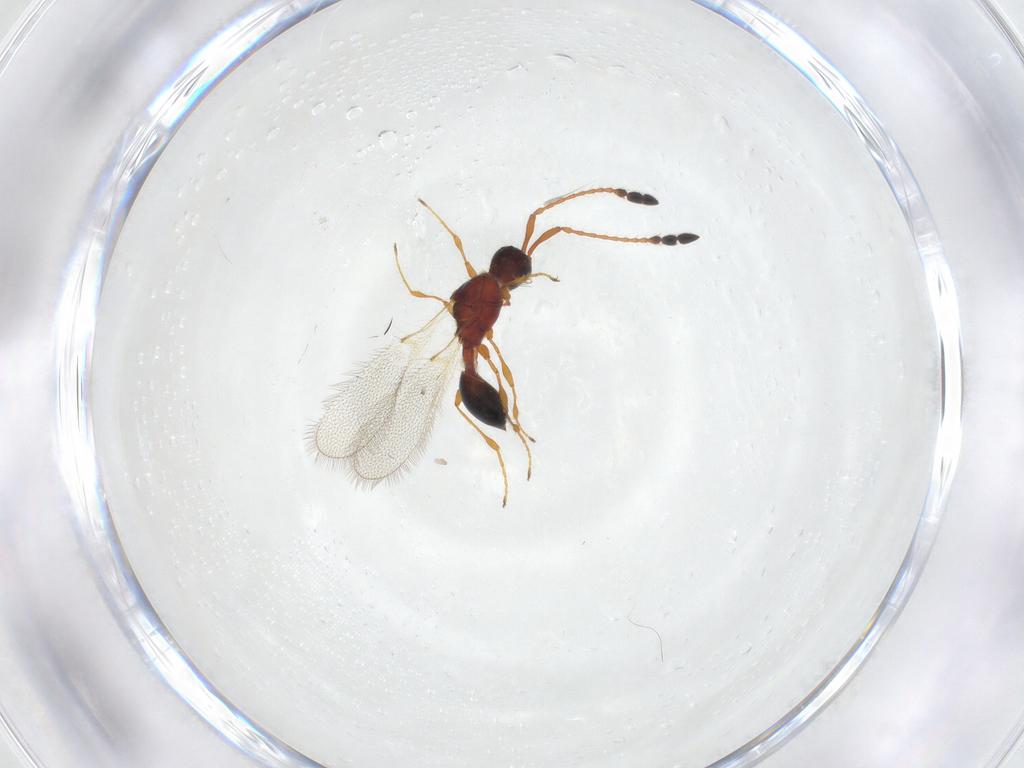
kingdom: Animalia
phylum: Arthropoda
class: Insecta
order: Hymenoptera
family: Diapriidae
